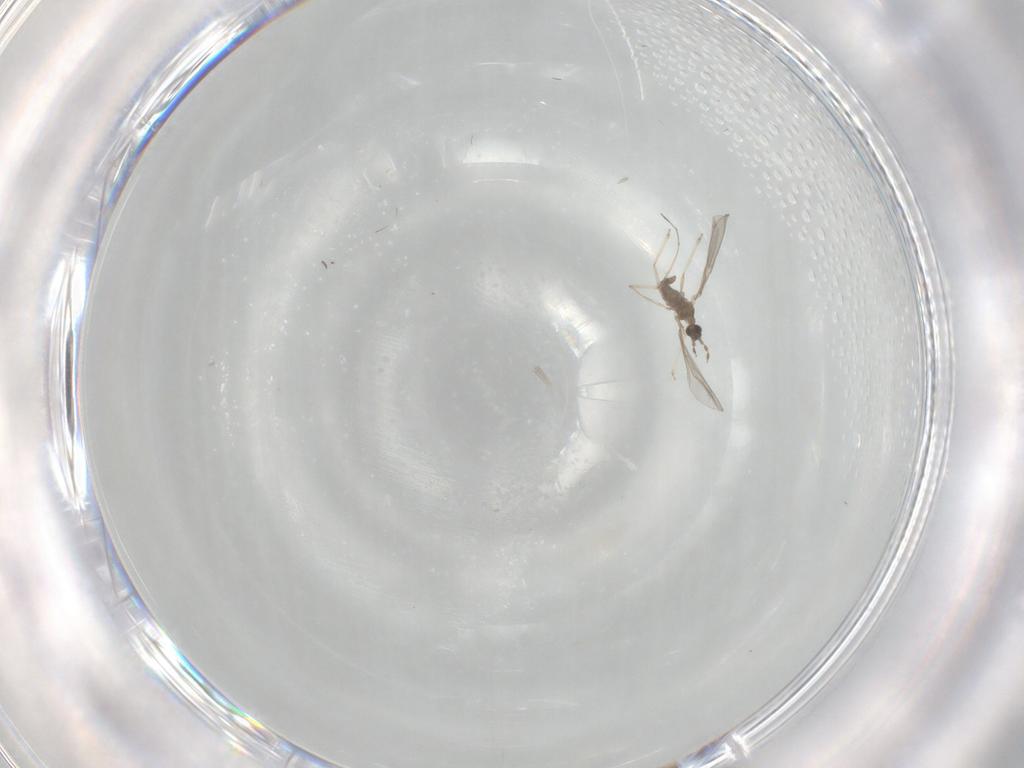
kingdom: Animalia
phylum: Arthropoda
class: Insecta
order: Diptera
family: Cecidomyiidae
